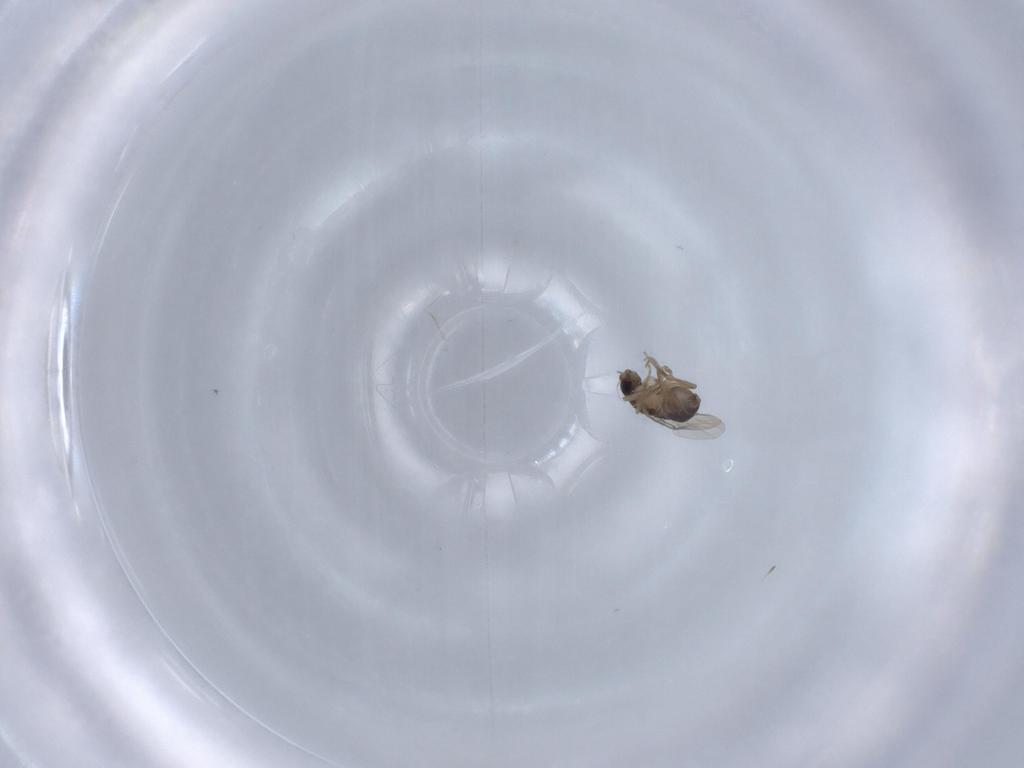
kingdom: Animalia
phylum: Arthropoda
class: Insecta
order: Diptera
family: Phoridae
